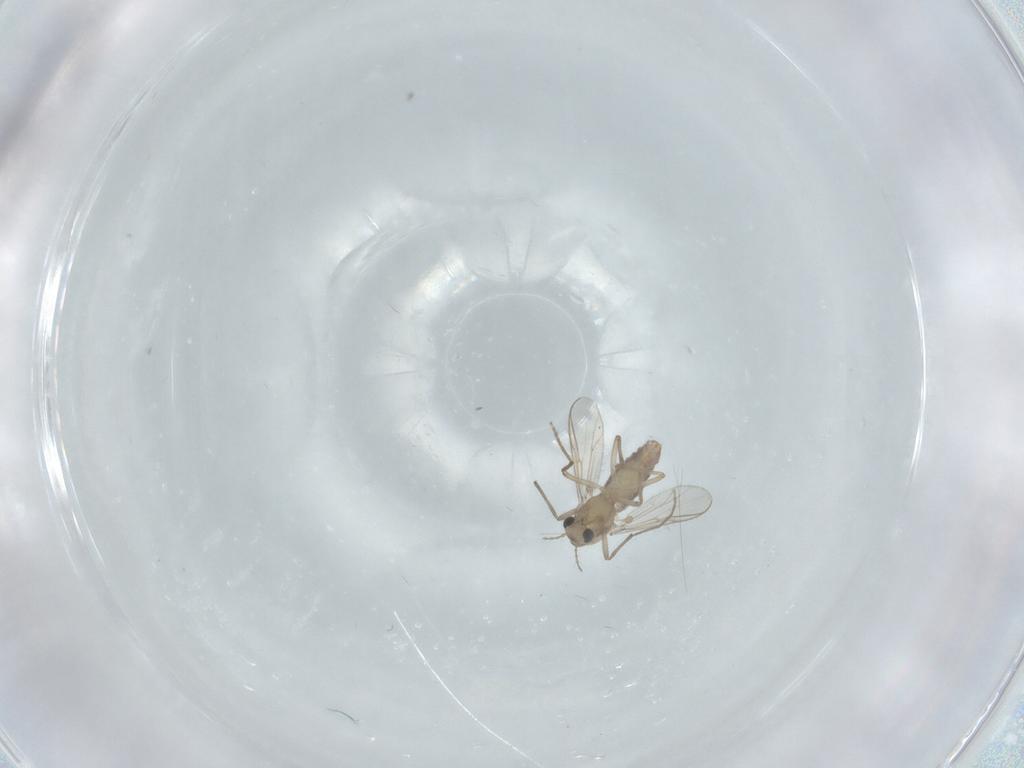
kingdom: Animalia
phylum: Arthropoda
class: Insecta
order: Diptera
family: Chironomidae
